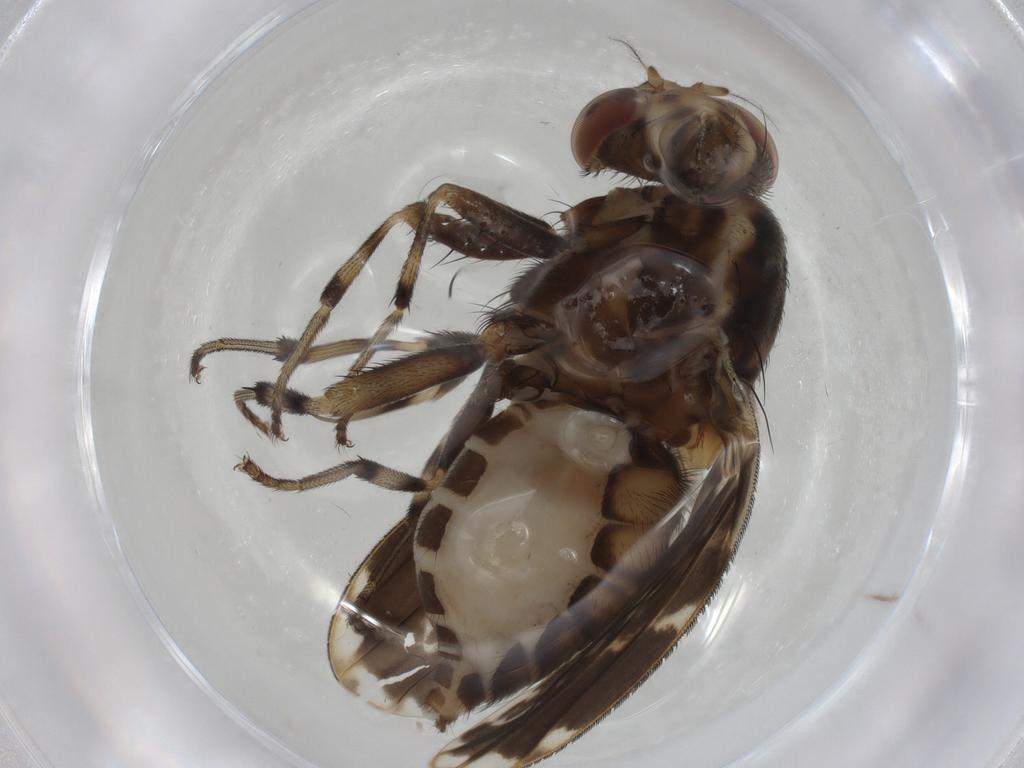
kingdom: Animalia
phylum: Arthropoda
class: Insecta
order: Diptera
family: Lauxaniidae
